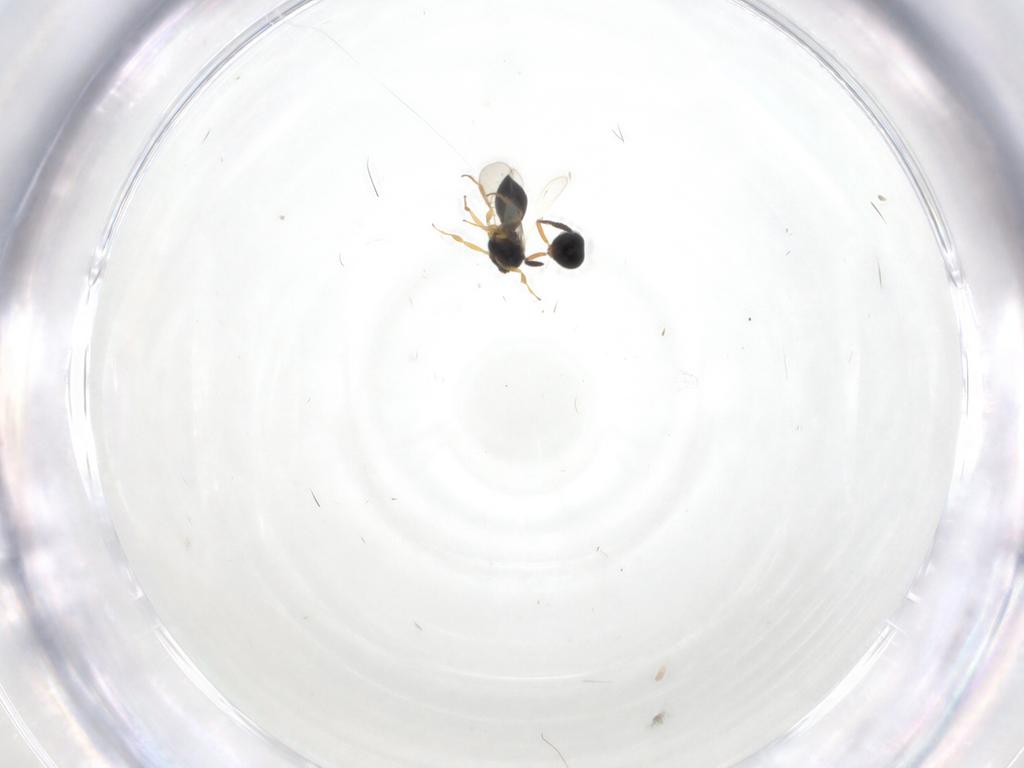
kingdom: Animalia
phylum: Arthropoda
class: Insecta
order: Hymenoptera
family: Scelionidae
